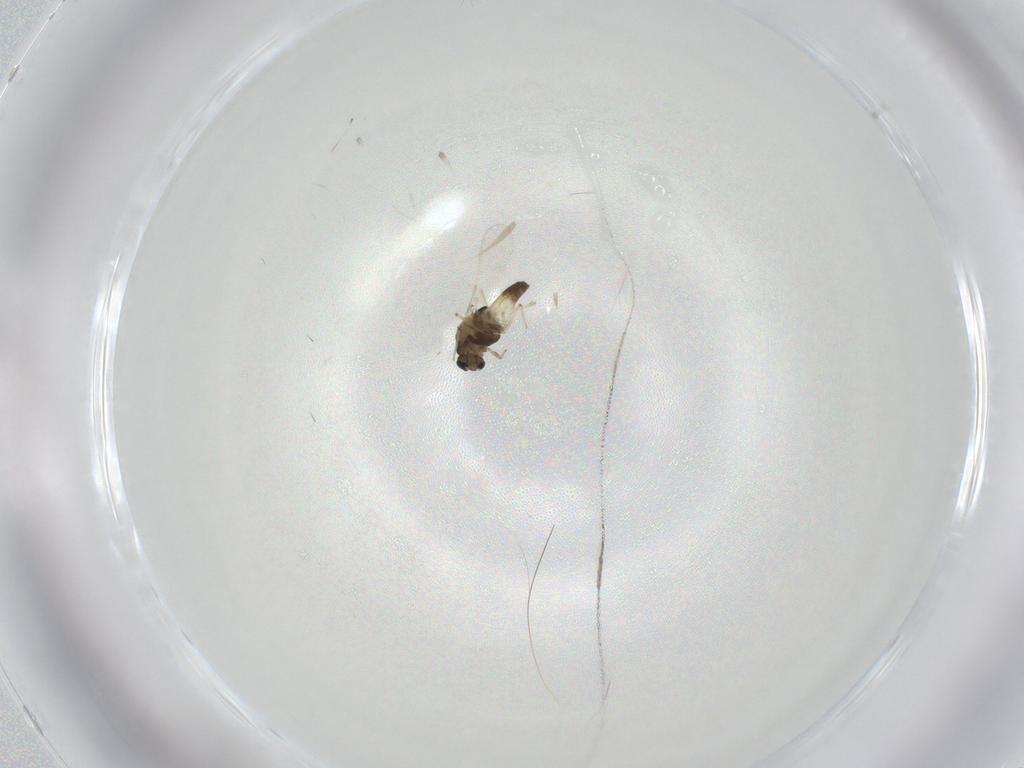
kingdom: Animalia
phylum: Arthropoda
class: Insecta
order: Diptera
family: Chironomidae
